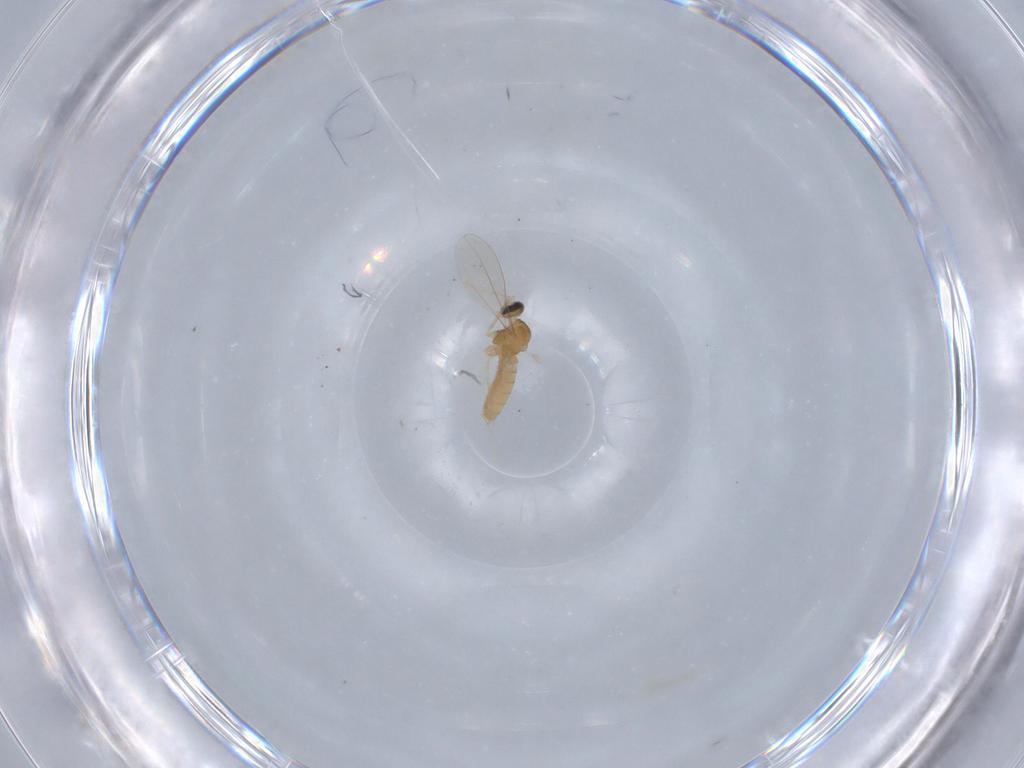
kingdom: Animalia
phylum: Arthropoda
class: Insecta
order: Diptera
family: Cecidomyiidae
